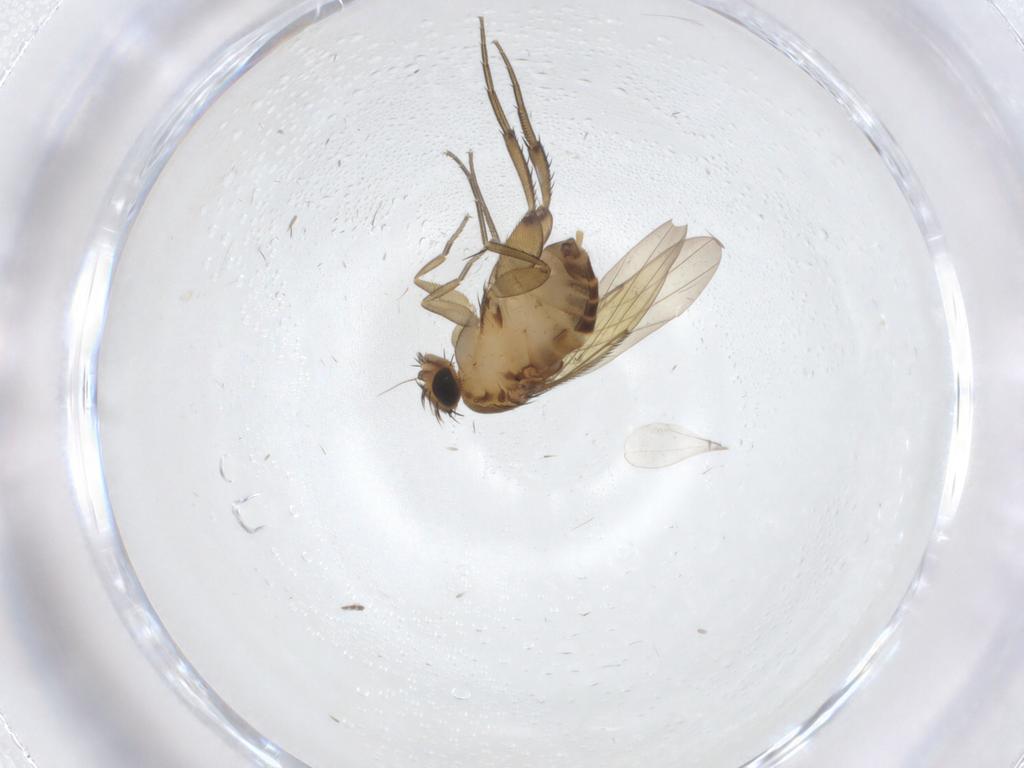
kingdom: Animalia
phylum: Arthropoda
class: Insecta
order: Diptera
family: Phoridae
